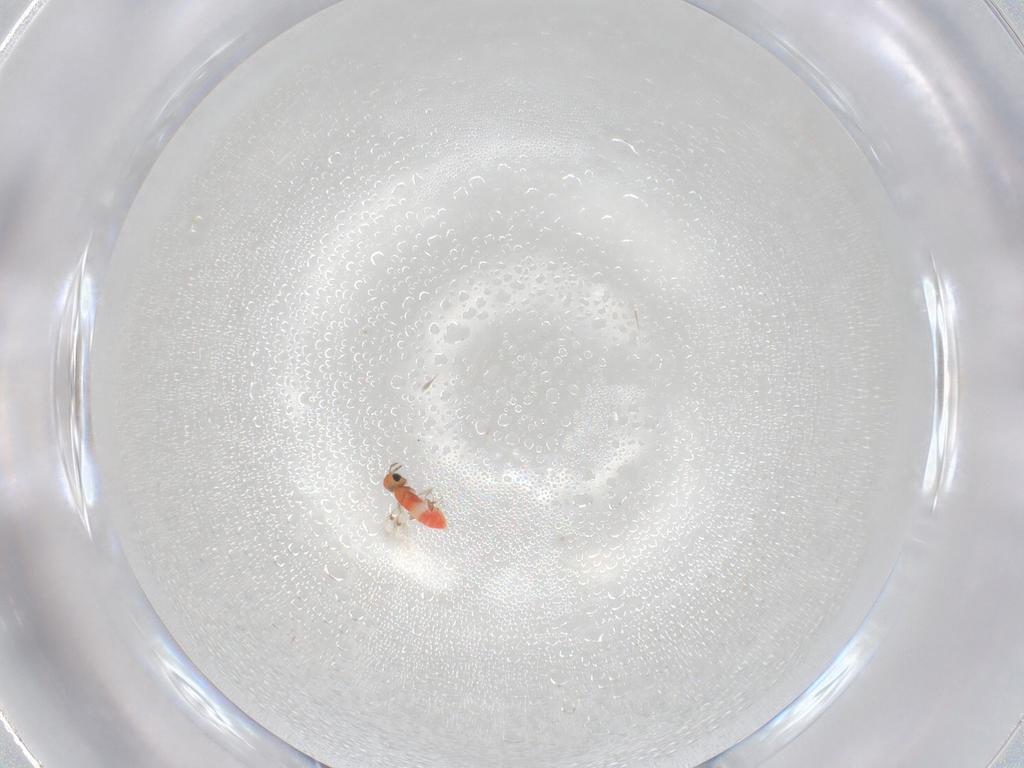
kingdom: Animalia
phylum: Arthropoda
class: Insecta
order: Hymenoptera
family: Trichogrammatidae
